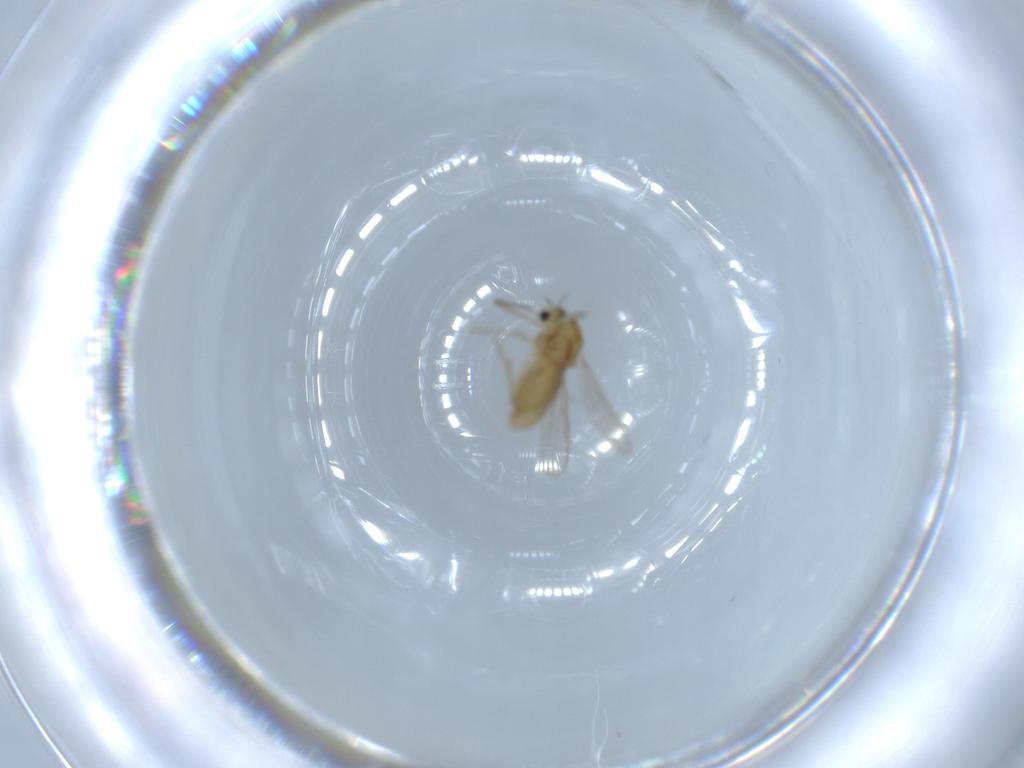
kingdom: Animalia
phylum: Arthropoda
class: Insecta
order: Diptera
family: Chironomidae
